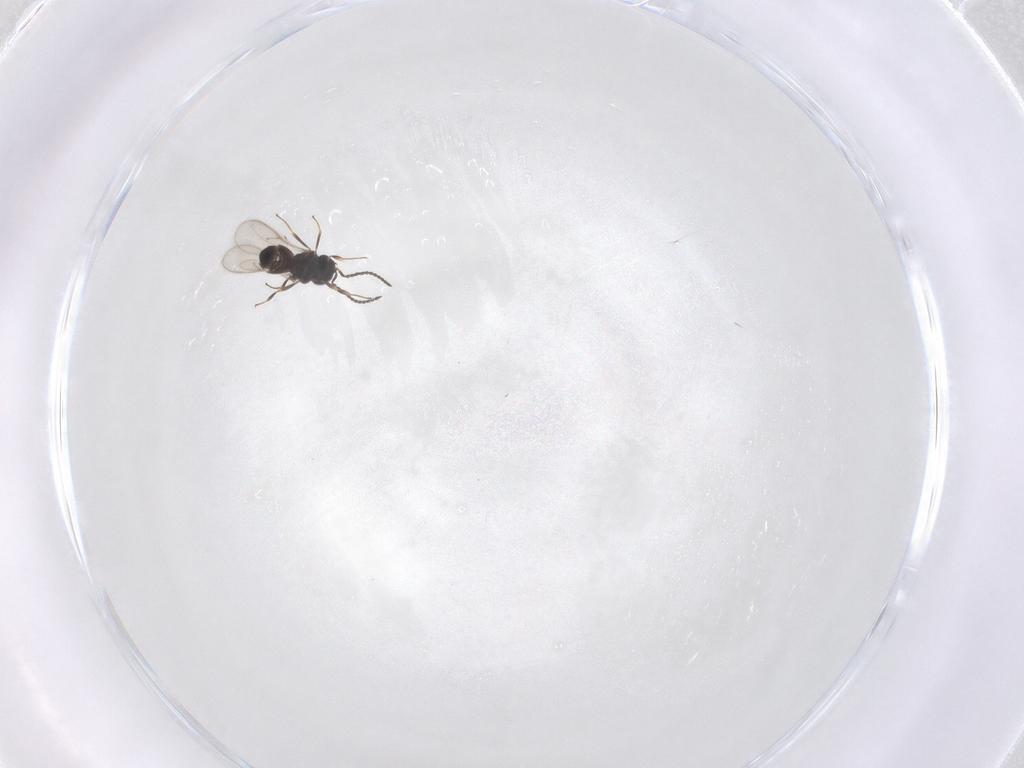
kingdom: Animalia
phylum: Arthropoda
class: Insecta
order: Hymenoptera
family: Scelionidae
